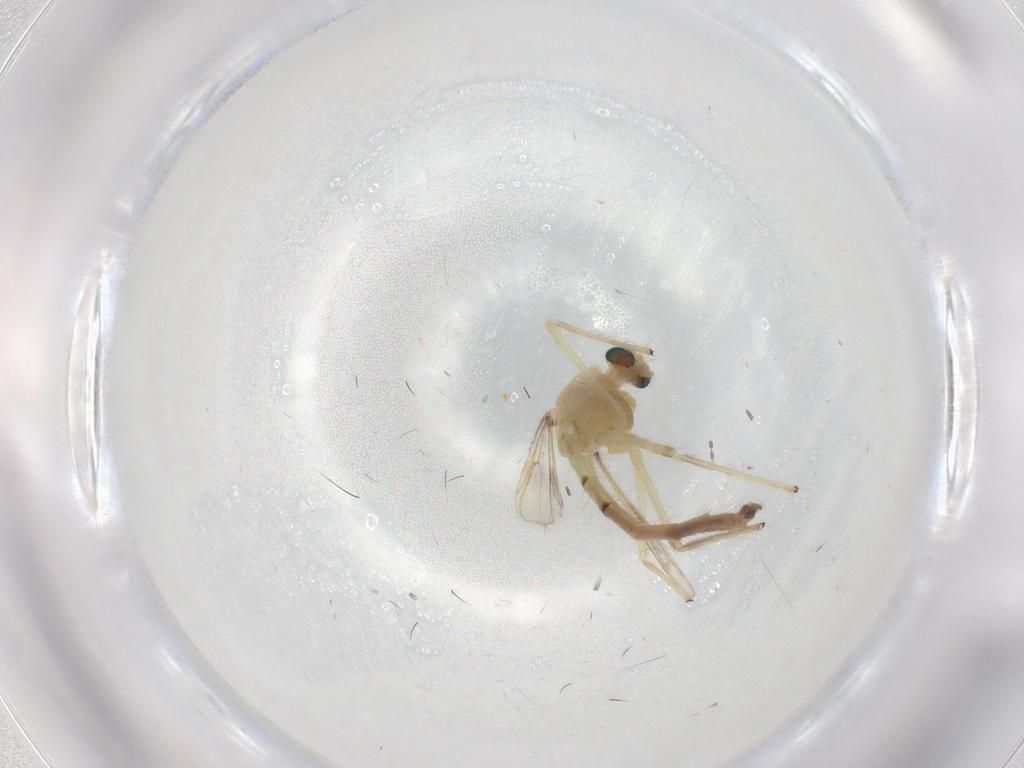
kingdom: Animalia
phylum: Arthropoda
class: Insecta
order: Diptera
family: Chironomidae
